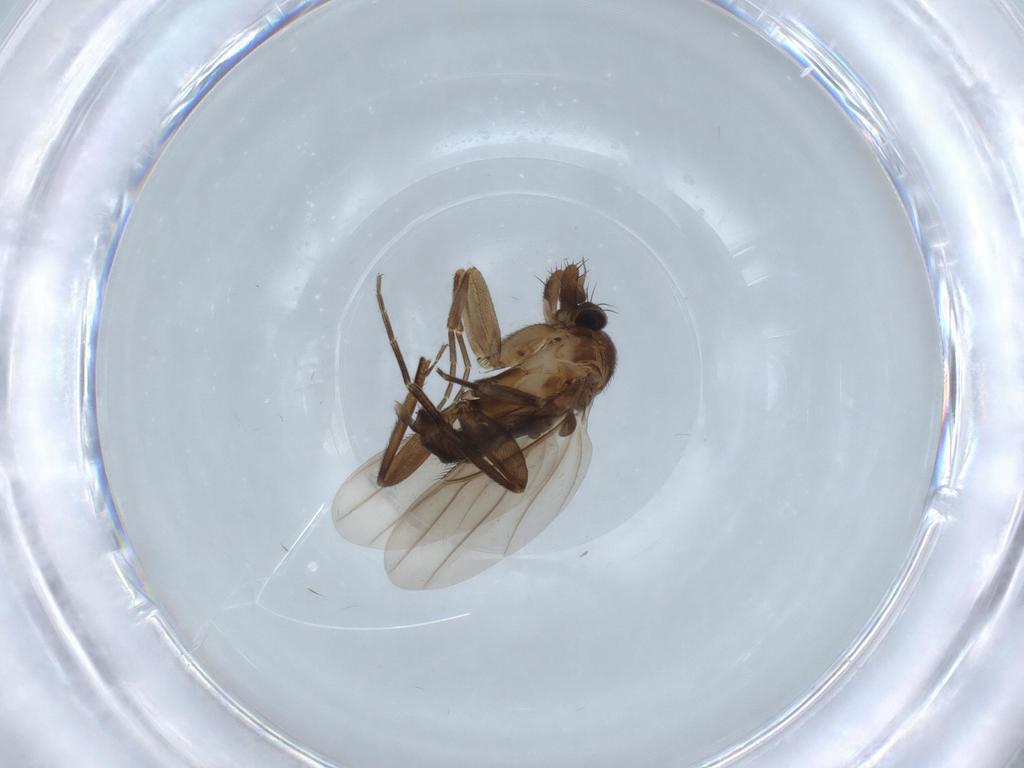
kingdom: Animalia
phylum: Arthropoda
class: Insecta
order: Diptera
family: Phoridae
